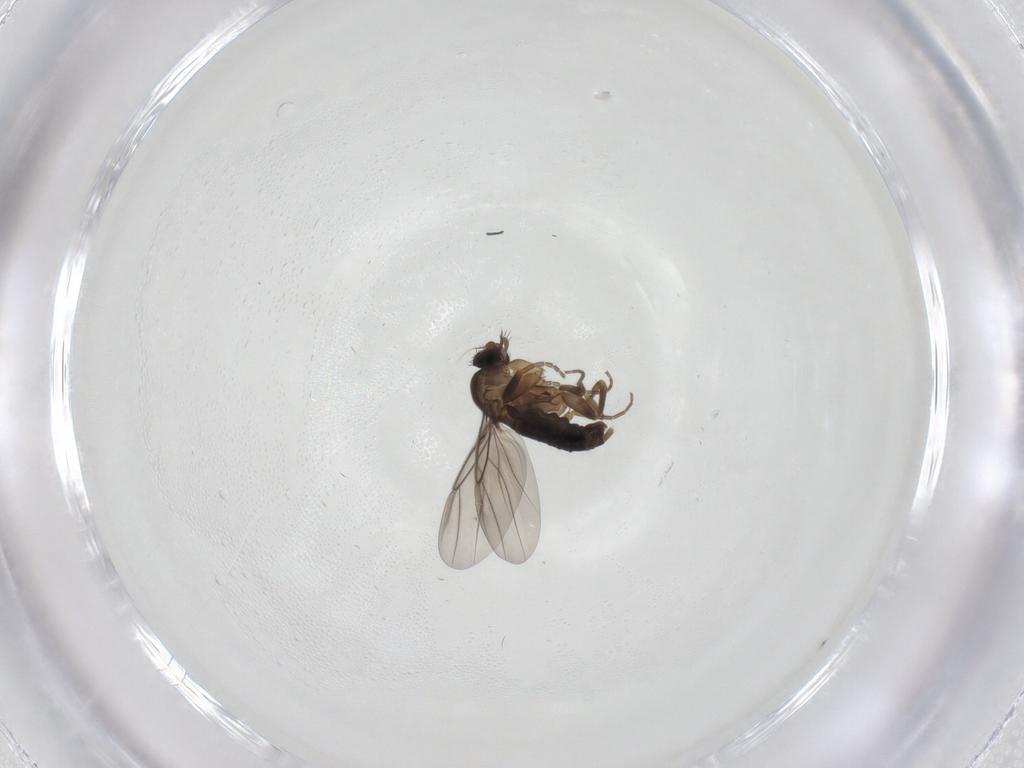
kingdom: Animalia
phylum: Arthropoda
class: Insecta
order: Diptera
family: Phoridae
